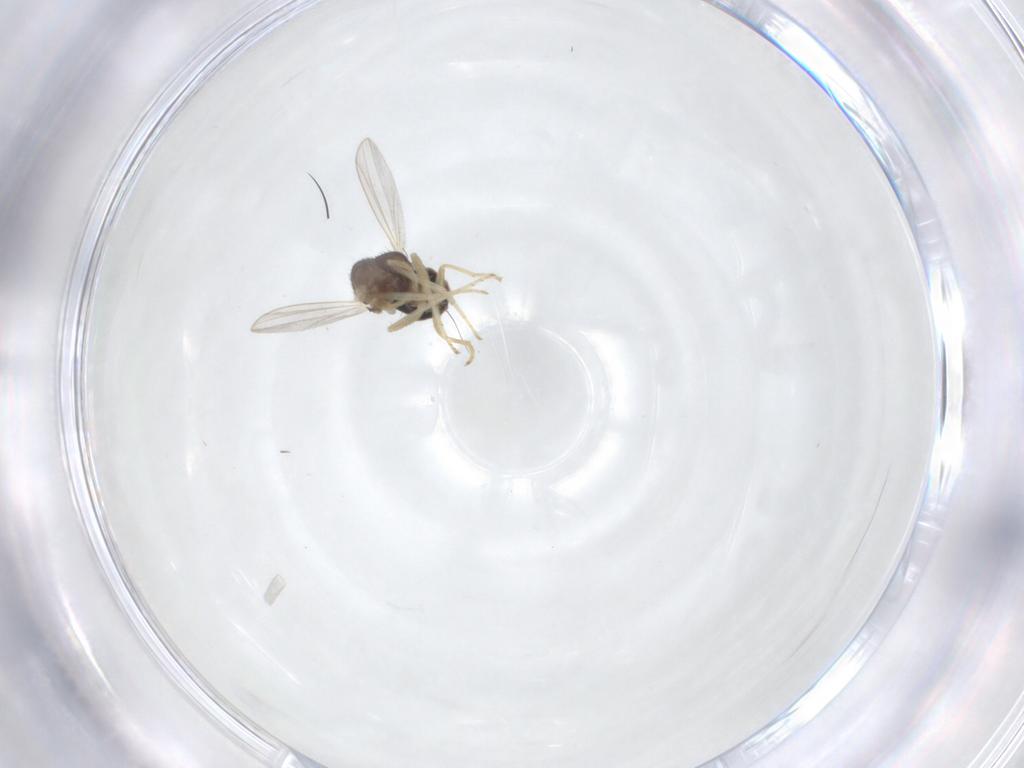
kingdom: Animalia
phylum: Arthropoda
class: Insecta
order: Diptera
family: Dolichopodidae
